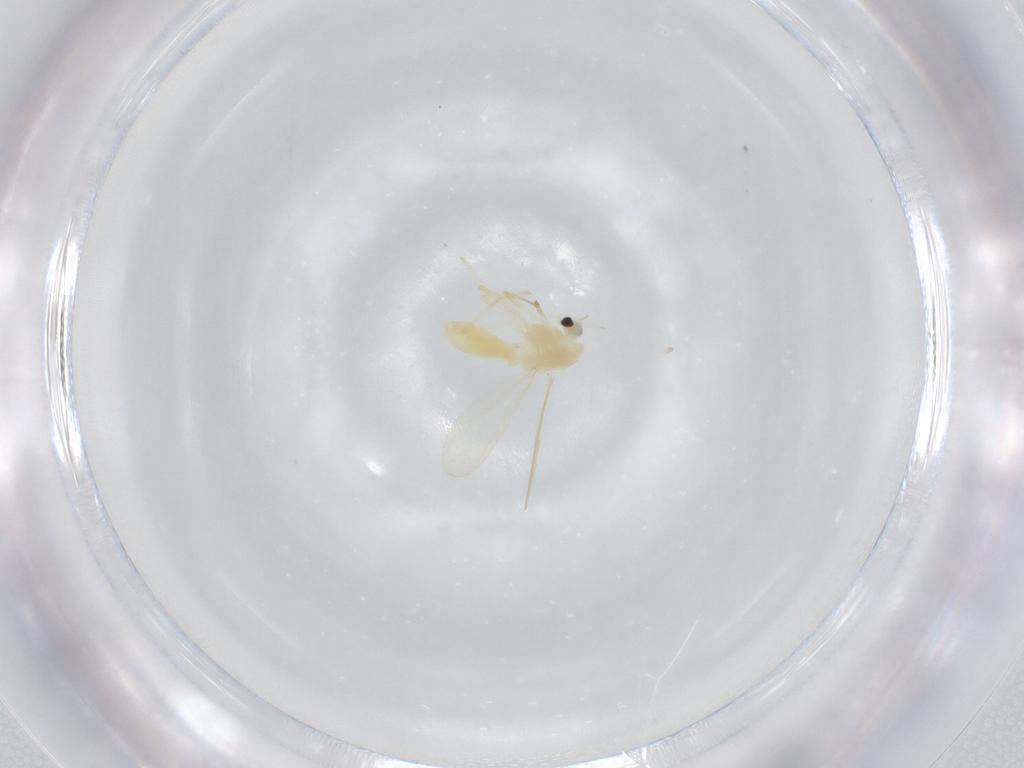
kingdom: Animalia
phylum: Arthropoda
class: Insecta
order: Diptera
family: Chironomidae
